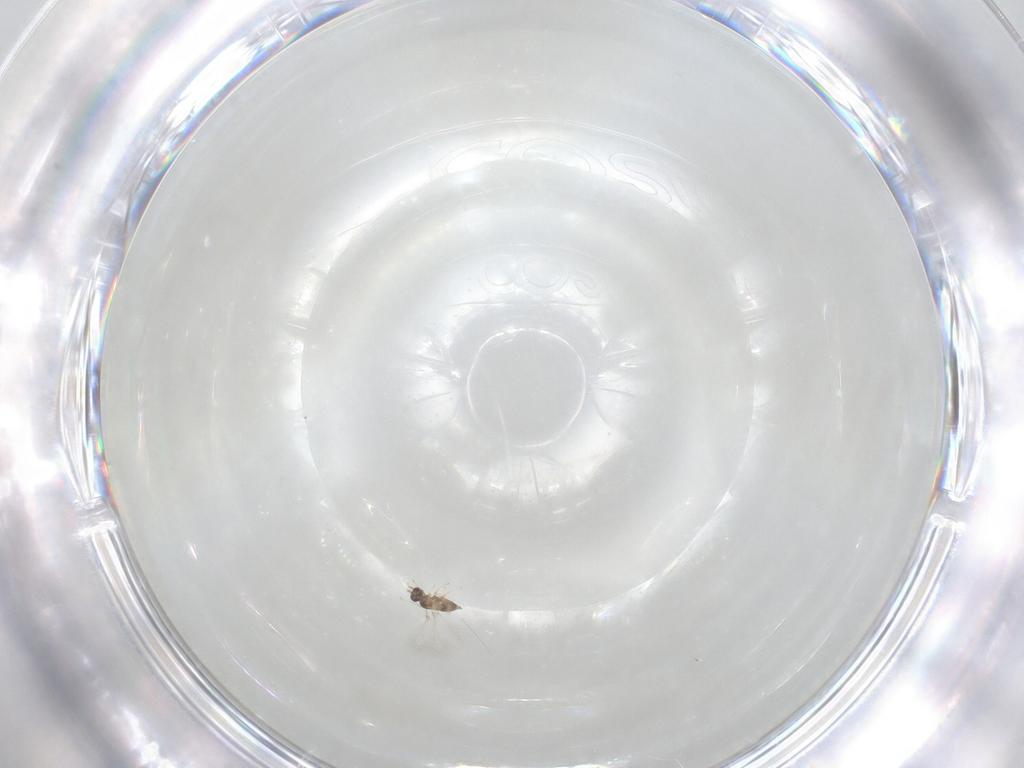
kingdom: Animalia
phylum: Arthropoda
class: Insecta
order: Hymenoptera
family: Mymaridae
